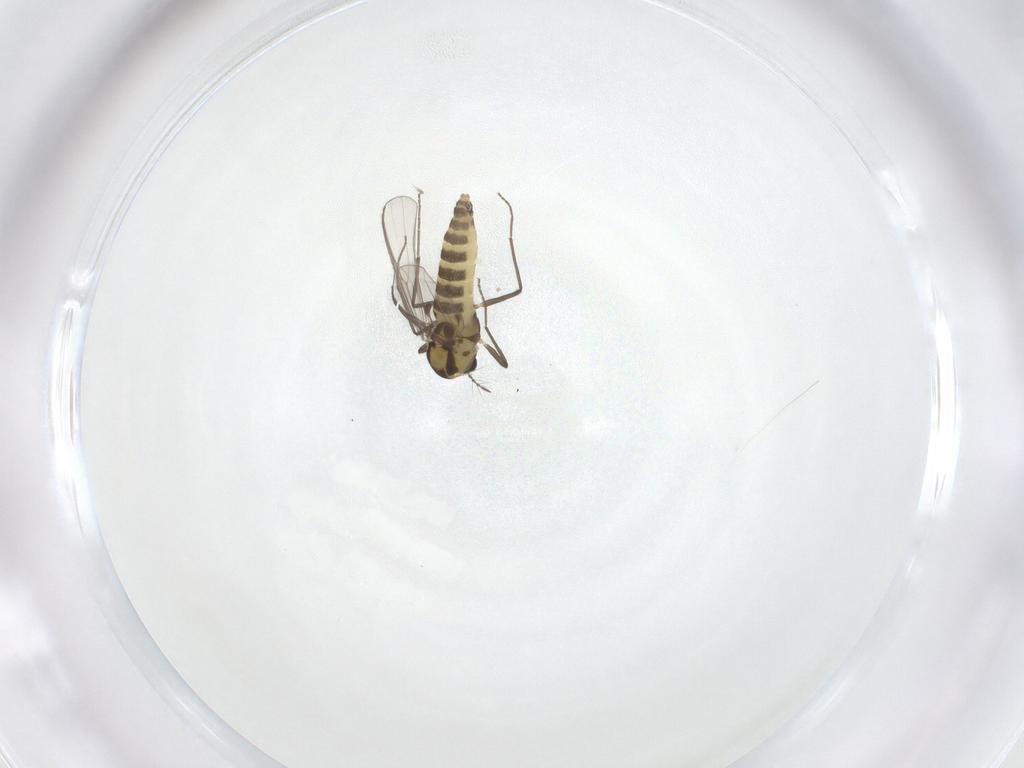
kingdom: Animalia
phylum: Arthropoda
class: Insecta
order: Diptera
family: Chironomidae
